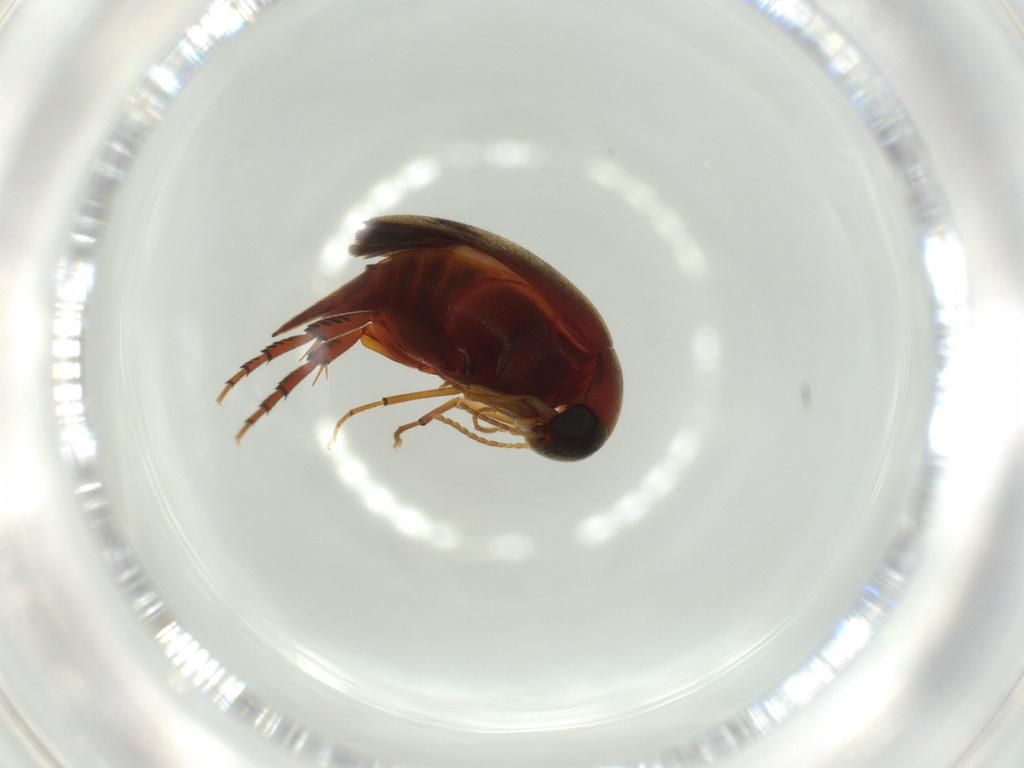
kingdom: Animalia
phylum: Arthropoda
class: Insecta
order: Coleoptera
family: Mordellidae
